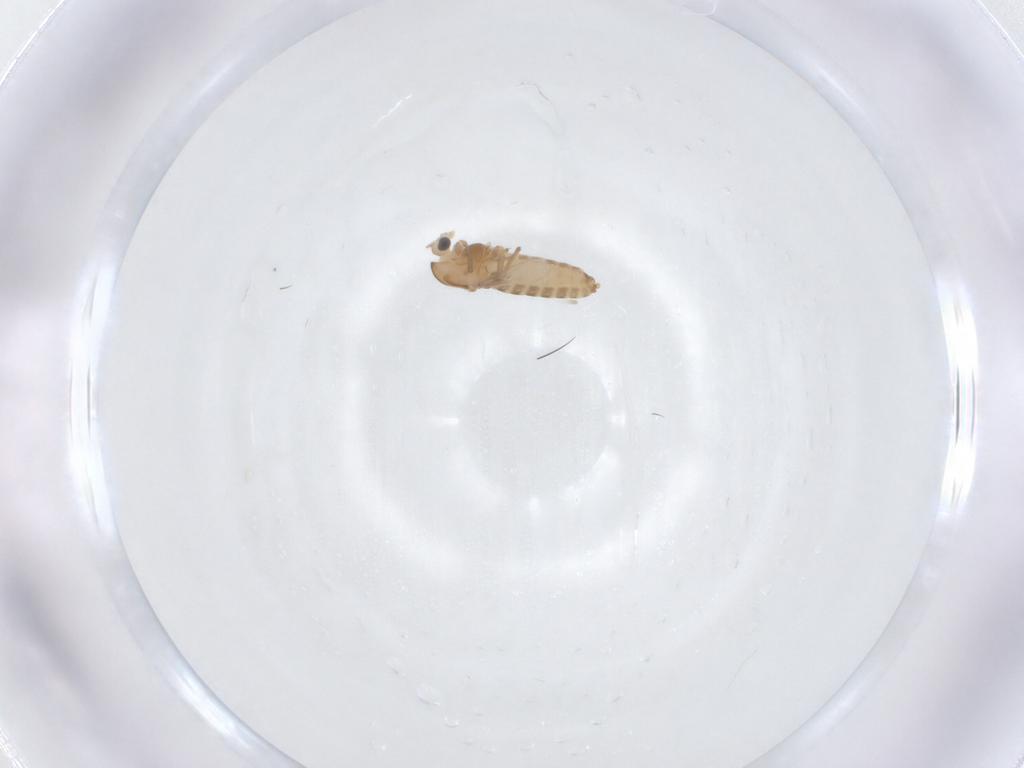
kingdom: Animalia
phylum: Arthropoda
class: Insecta
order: Diptera
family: Chironomidae
